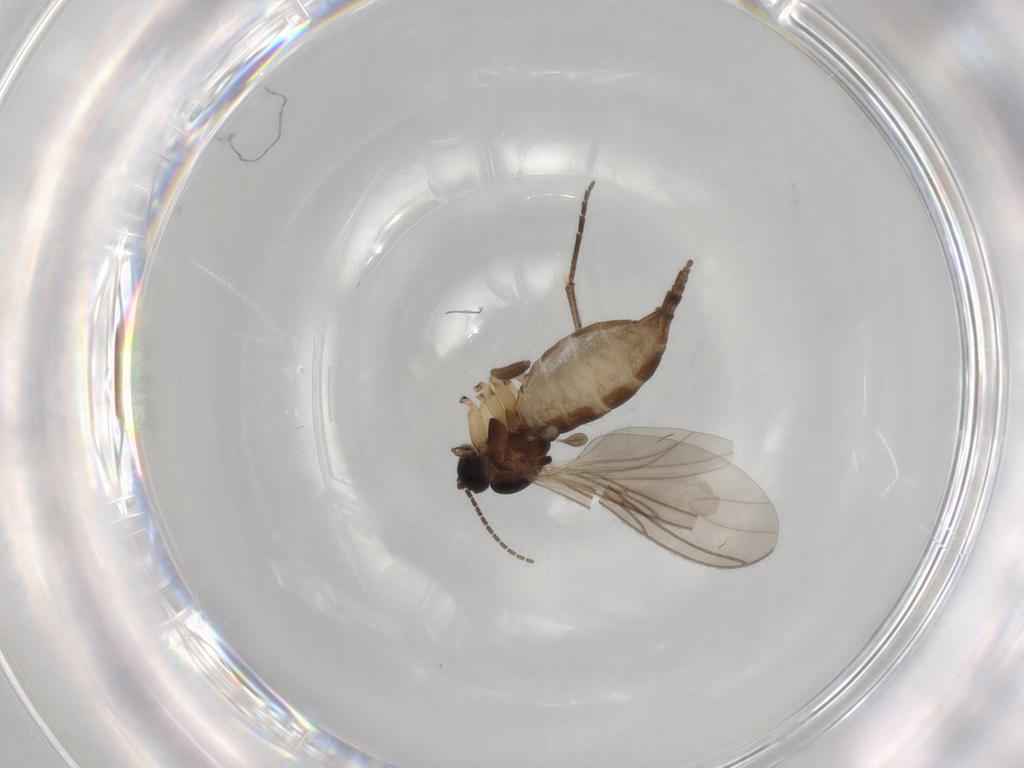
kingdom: Animalia
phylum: Arthropoda
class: Insecta
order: Diptera
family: Sciaridae
